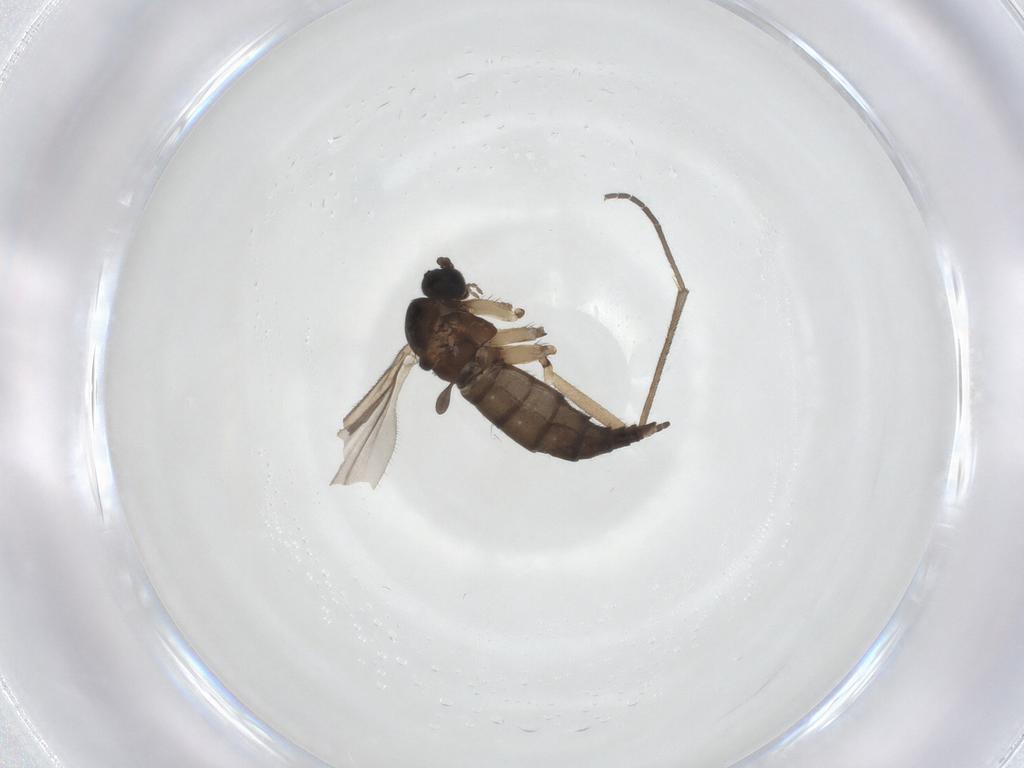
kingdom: Animalia
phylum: Arthropoda
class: Insecta
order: Diptera
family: Sciaridae
